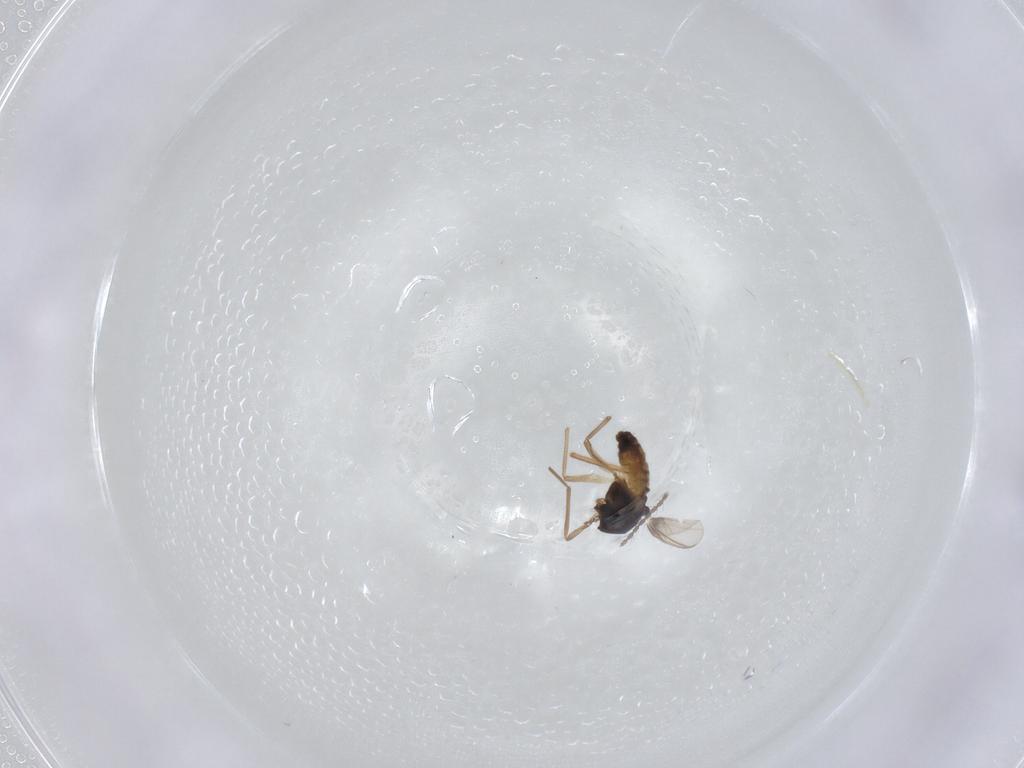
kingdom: Animalia
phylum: Arthropoda
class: Insecta
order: Diptera
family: Chironomidae
